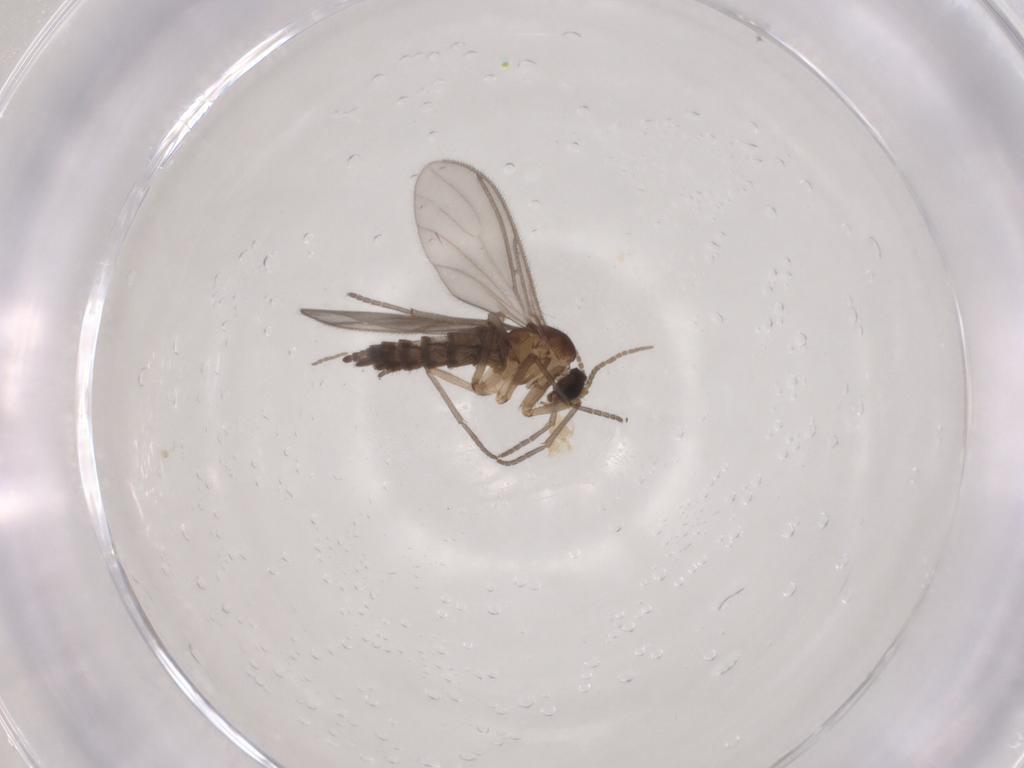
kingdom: Animalia
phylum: Arthropoda
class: Insecta
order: Diptera
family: Sciaridae
